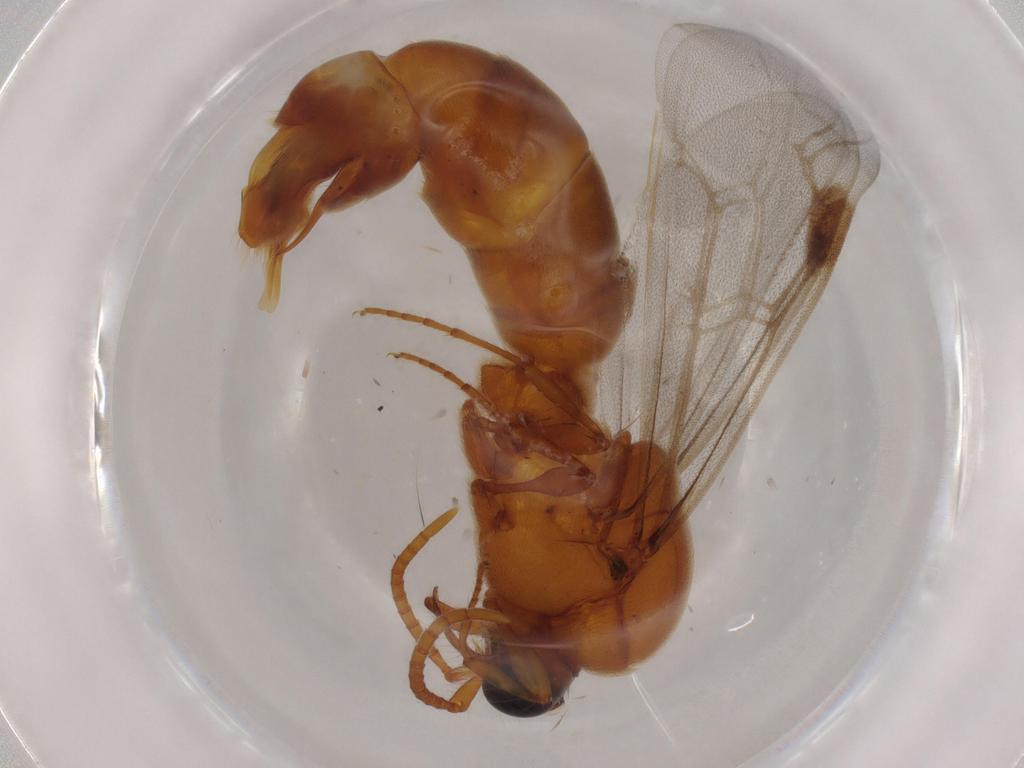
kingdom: Animalia
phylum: Arthropoda
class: Insecta
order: Hymenoptera
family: Formicidae
